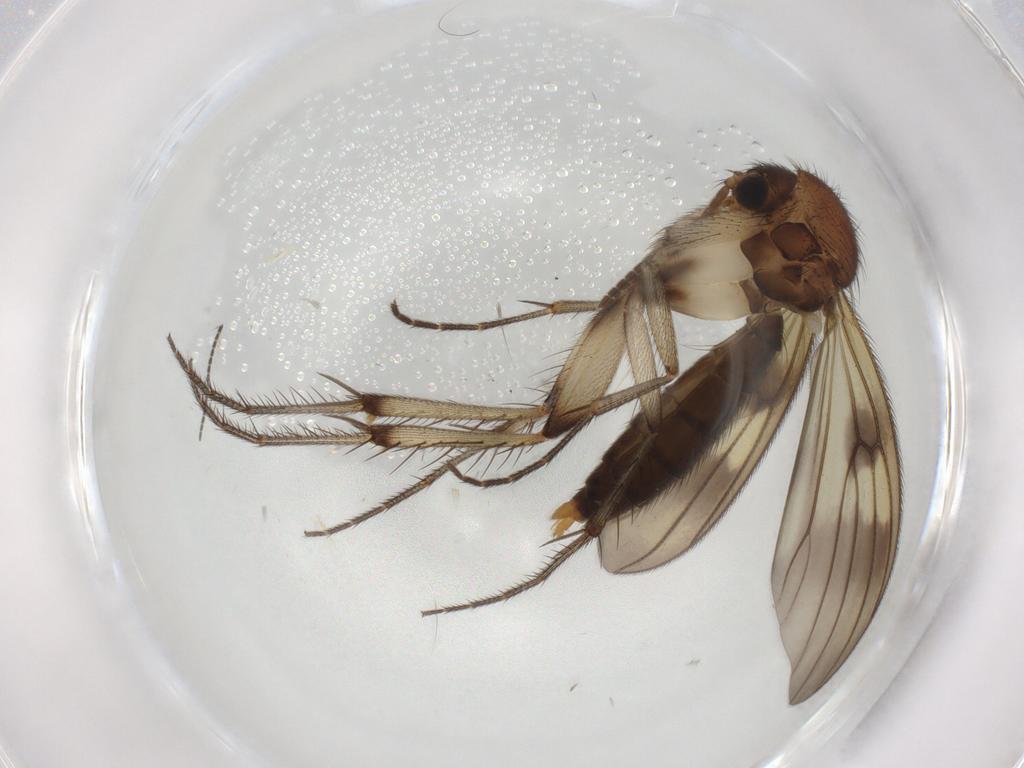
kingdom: Animalia
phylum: Arthropoda
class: Insecta
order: Diptera
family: Mycetophilidae
